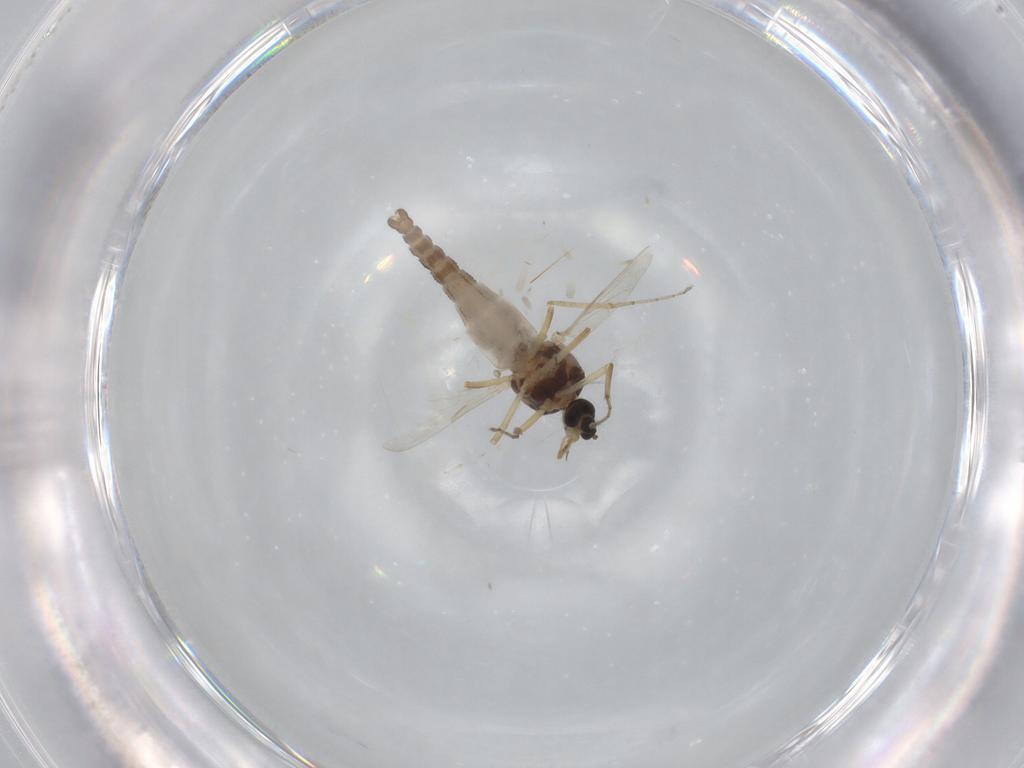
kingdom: Animalia
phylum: Arthropoda
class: Insecta
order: Diptera
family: Ceratopogonidae
